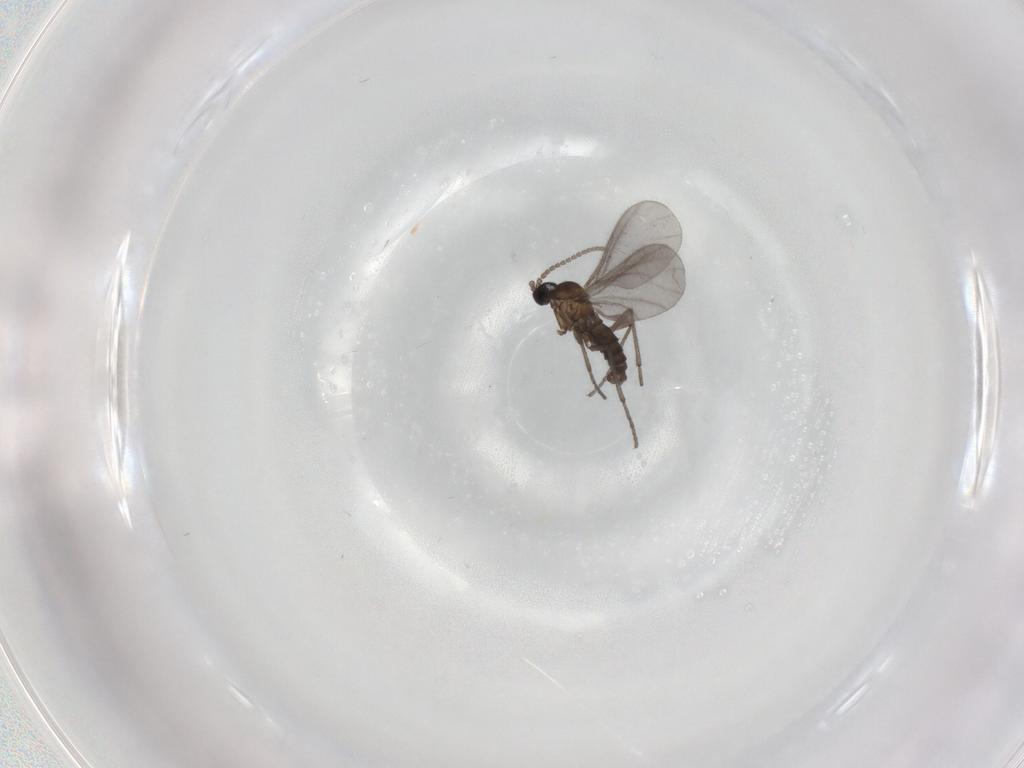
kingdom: Animalia
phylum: Arthropoda
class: Insecta
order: Diptera
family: Sciaridae
